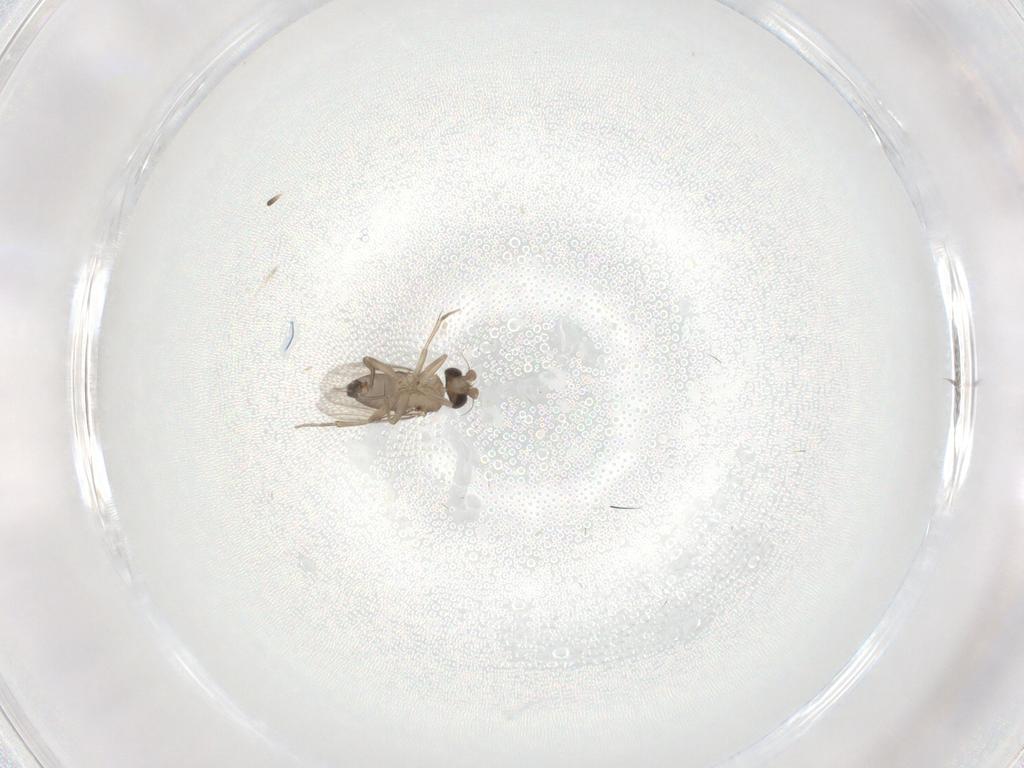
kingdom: Animalia
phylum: Arthropoda
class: Insecta
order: Diptera
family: Phoridae
